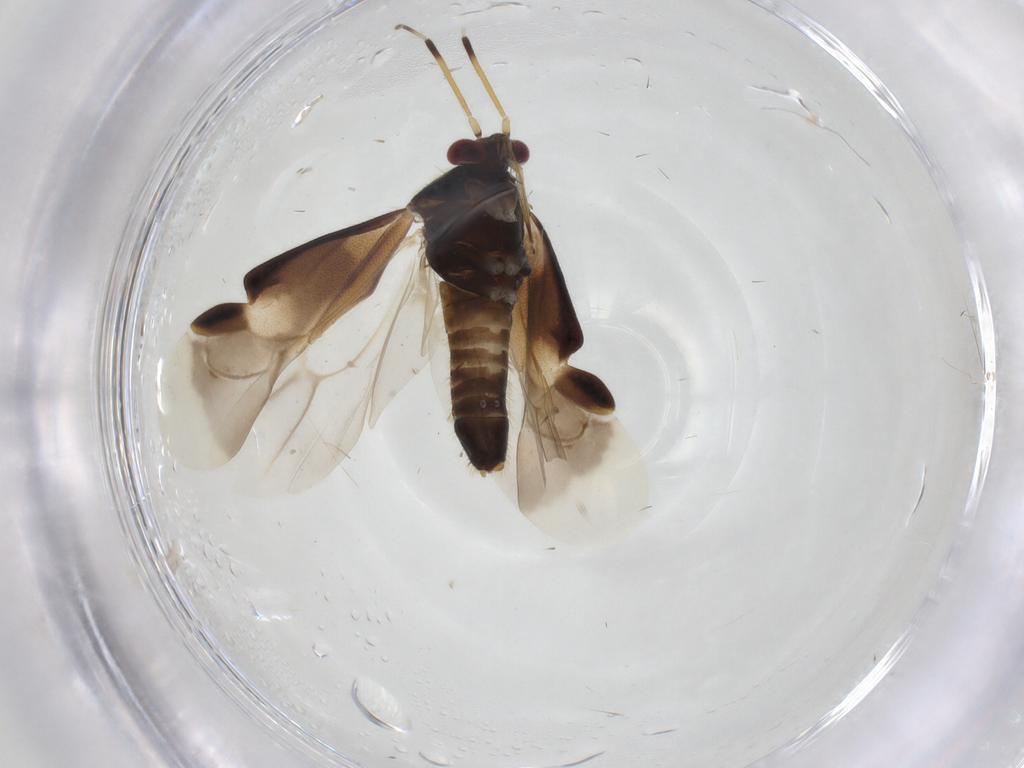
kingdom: Animalia
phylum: Arthropoda
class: Insecta
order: Hemiptera
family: Miridae
